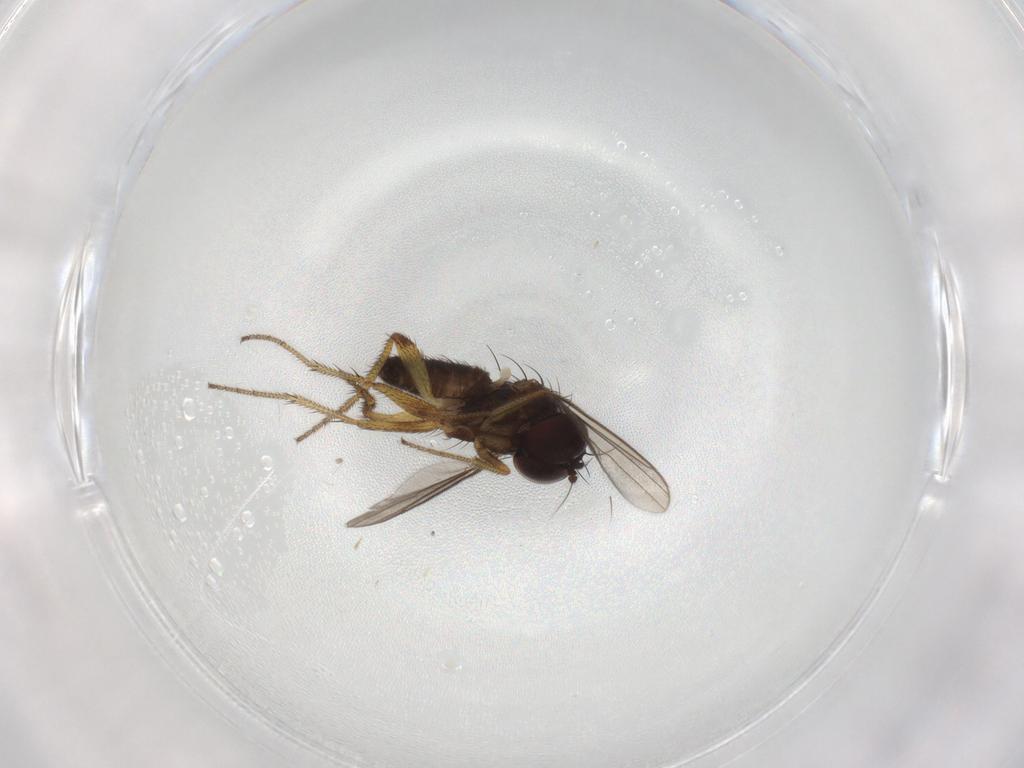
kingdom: Animalia
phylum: Arthropoda
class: Insecta
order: Diptera
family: Dolichopodidae
